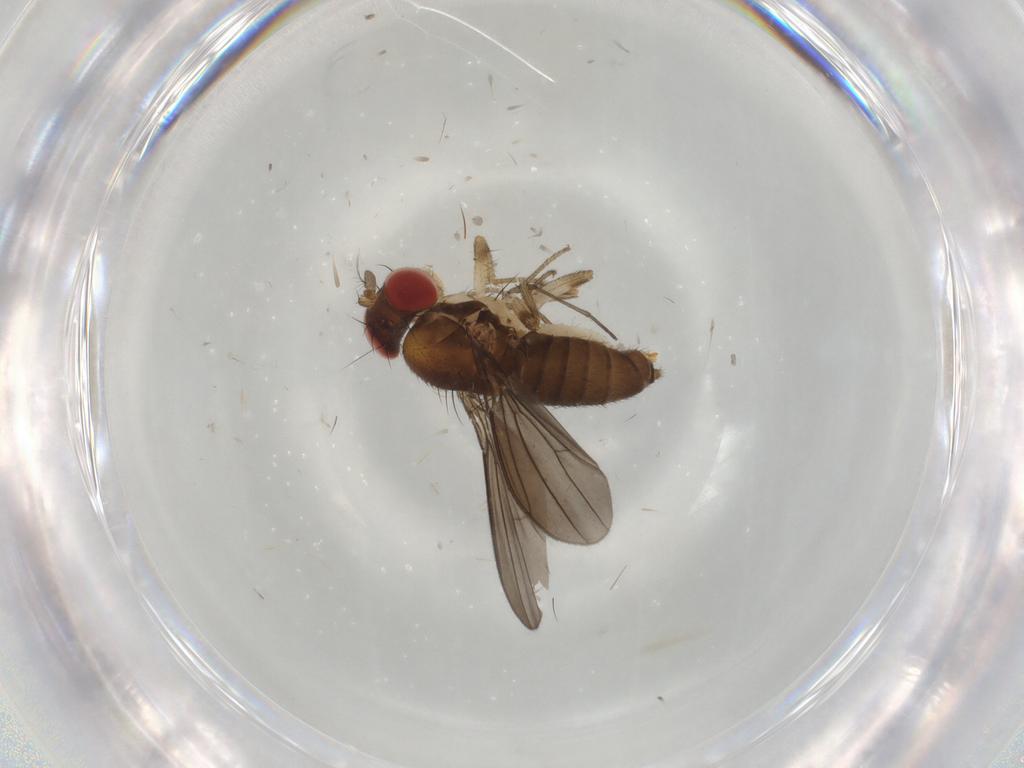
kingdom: Animalia
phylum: Arthropoda
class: Insecta
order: Diptera
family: Drosophilidae
